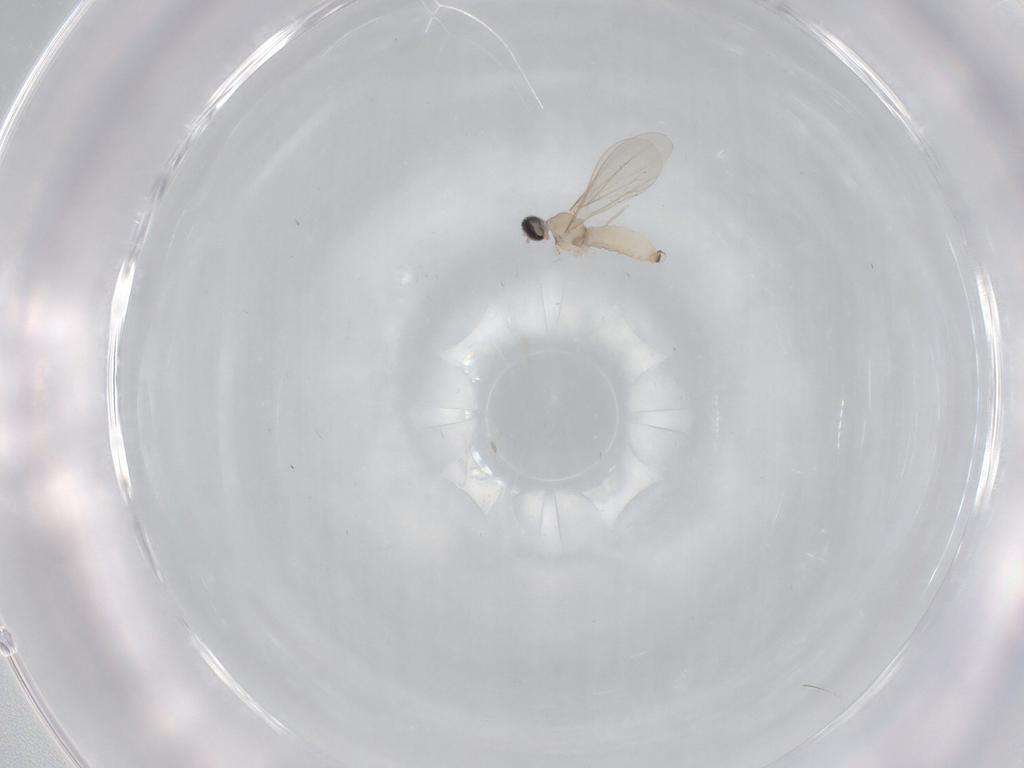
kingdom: Animalia
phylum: Arthropoda
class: Insecta
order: Diptera
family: Cecidomyiidae
